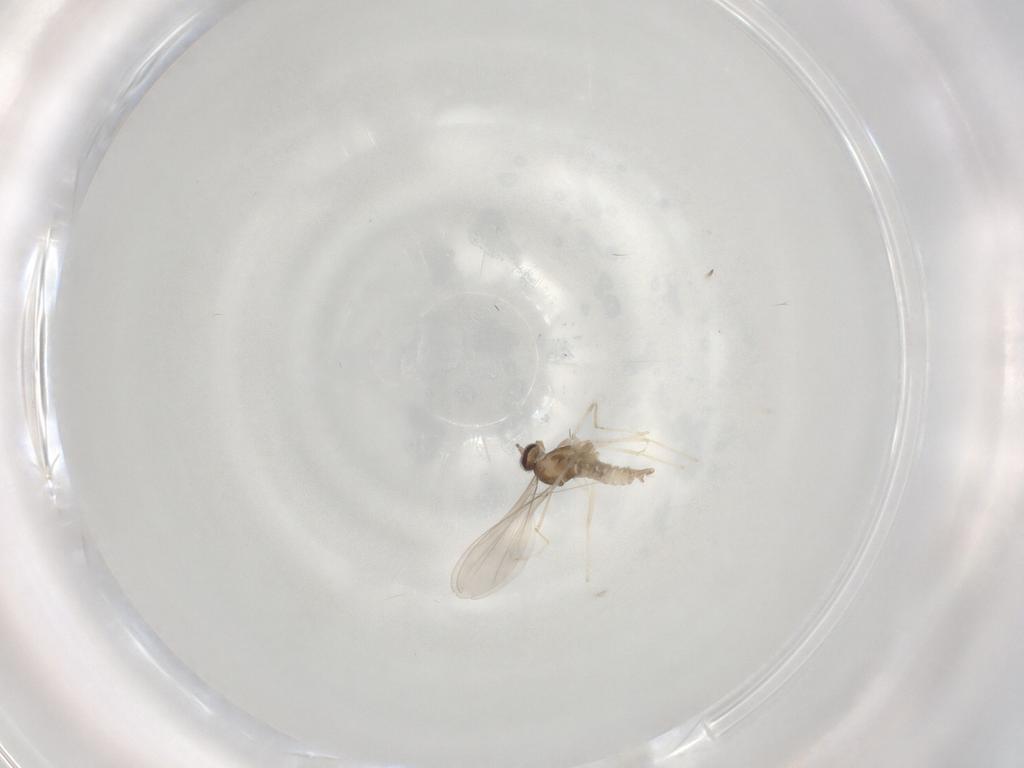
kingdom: Animalia
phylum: Arthropoda
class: Insecta
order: Diptera
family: Cecidomyiidae
